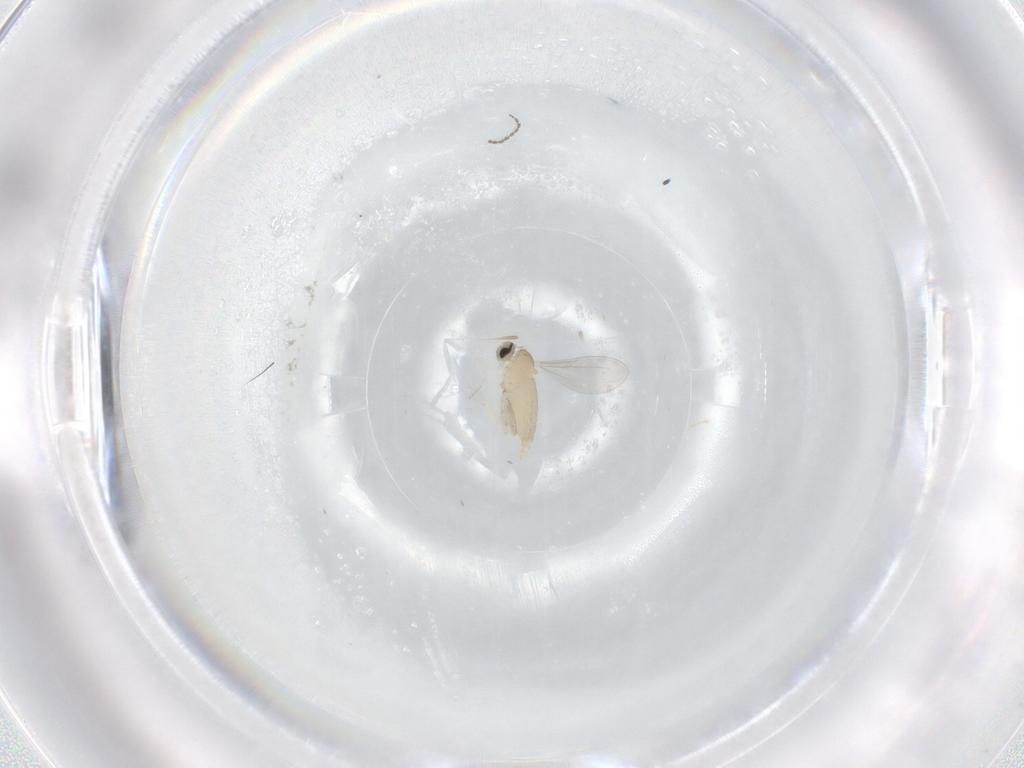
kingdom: Animalia
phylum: Arthropoda
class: Insecta
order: Diptera
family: Cecidomyiidae
